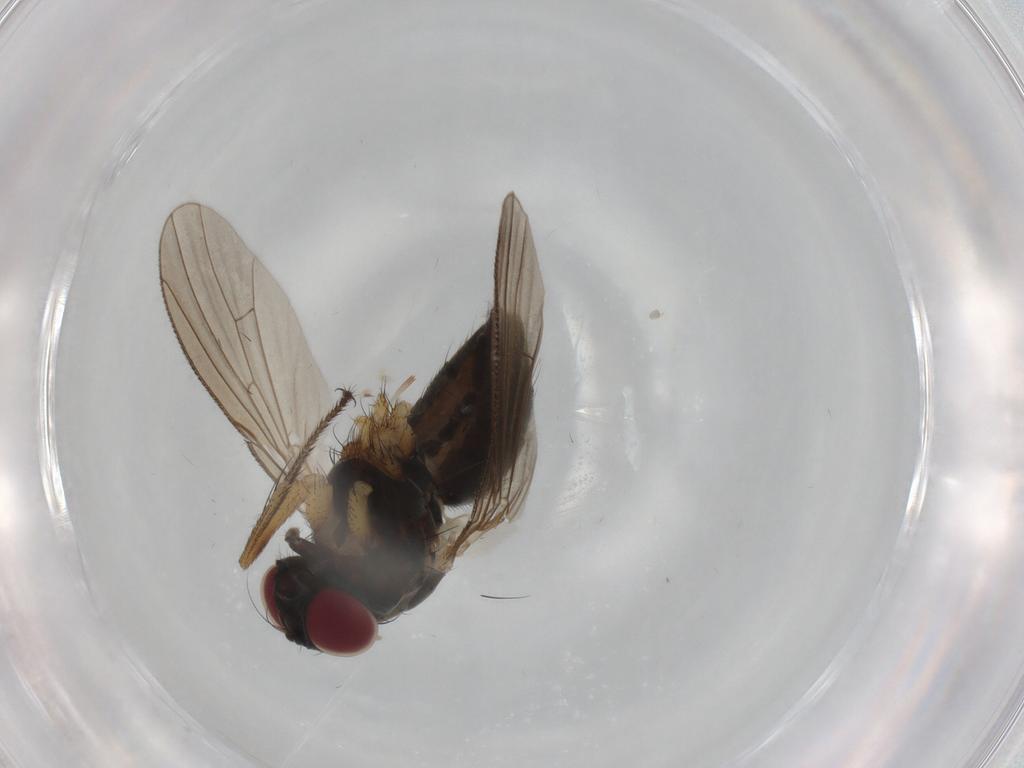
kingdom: Animalia
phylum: Arthropoda
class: Insecta
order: Diptera
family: Muscidae
